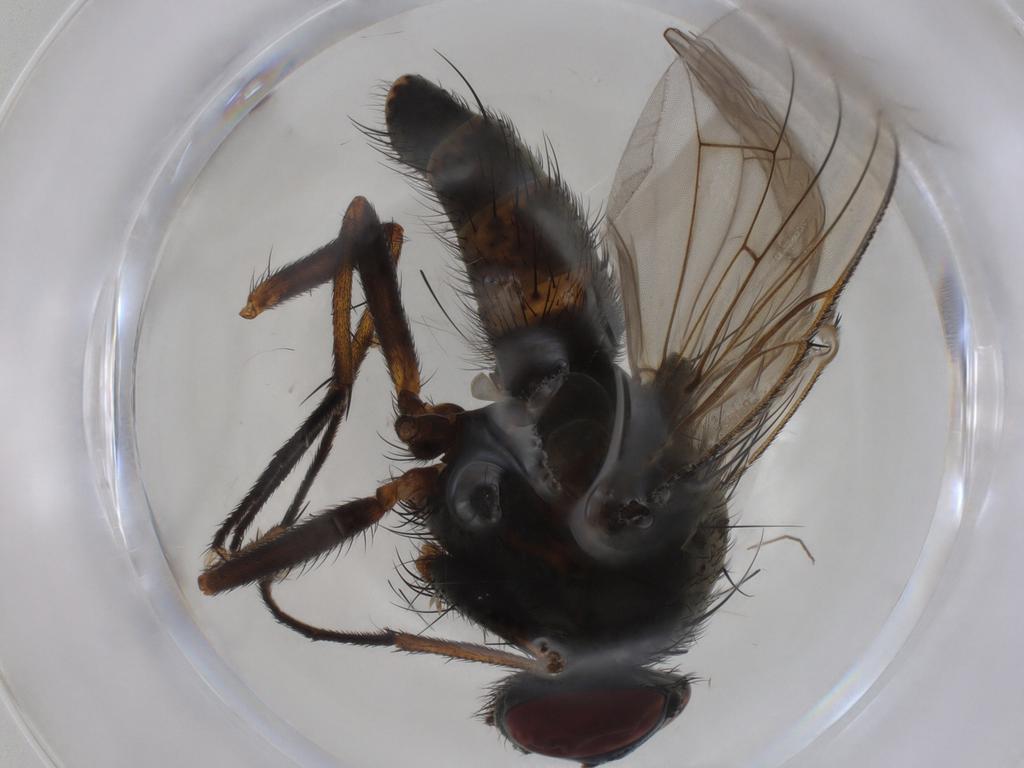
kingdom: Animalia
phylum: Arthropoda
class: Insecta
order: Diptera
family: Muscidae
